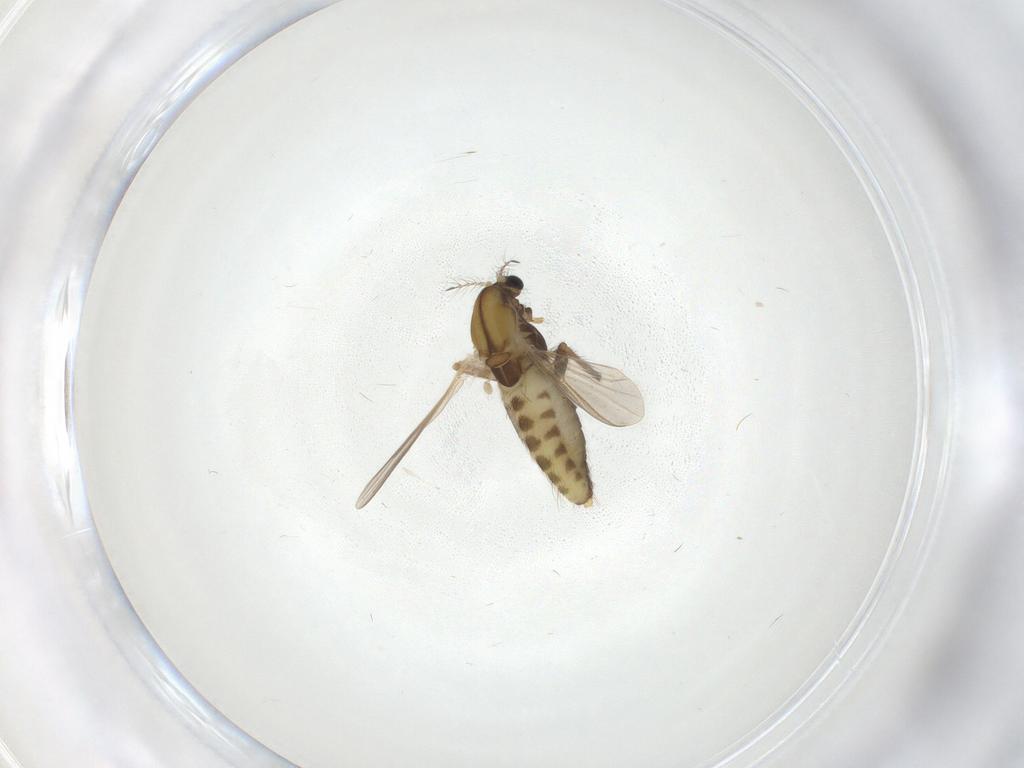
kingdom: Animalia
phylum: Arthropoda
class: Insecta
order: Diptera
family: Chironomidae
